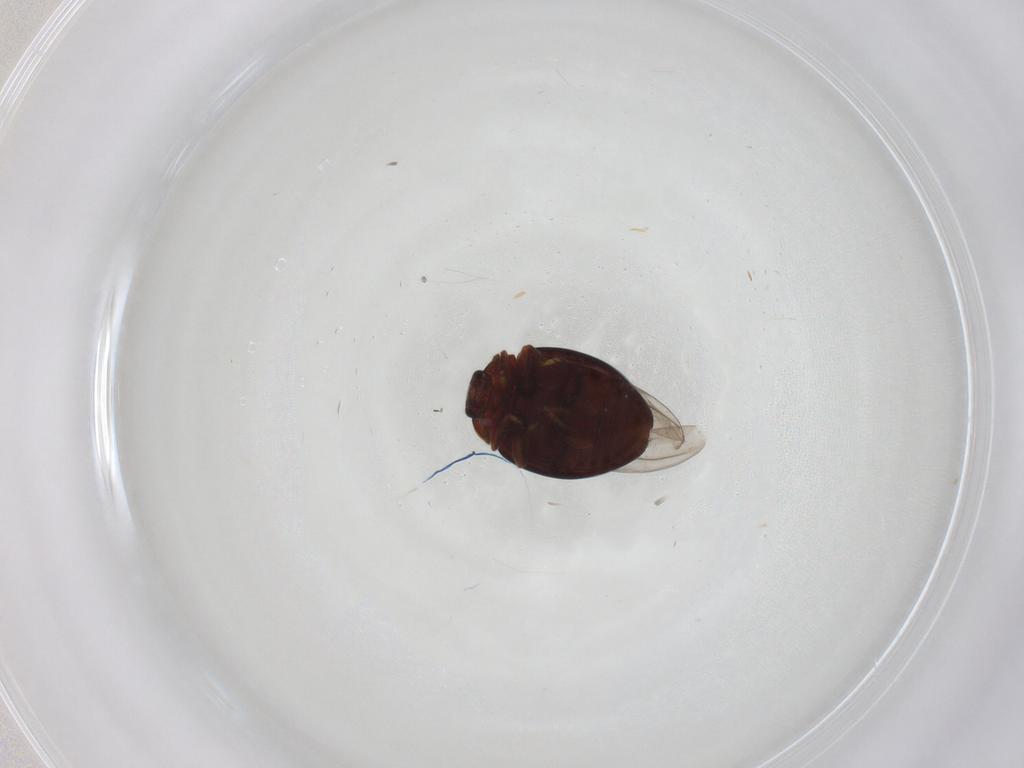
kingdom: Animalia
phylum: Arthropoda
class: Insecta
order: Coleoptera
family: Coccinellidae
